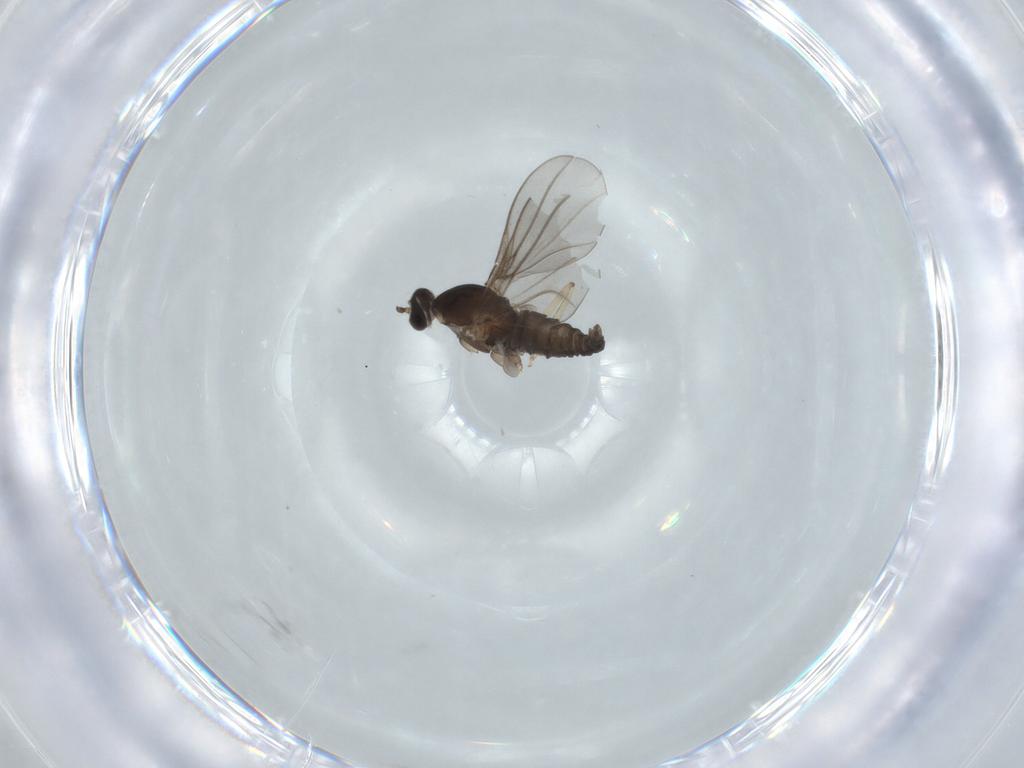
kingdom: Animalia
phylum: Arthropoda
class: Insecta
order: Diptera
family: Cecidomyiidae
